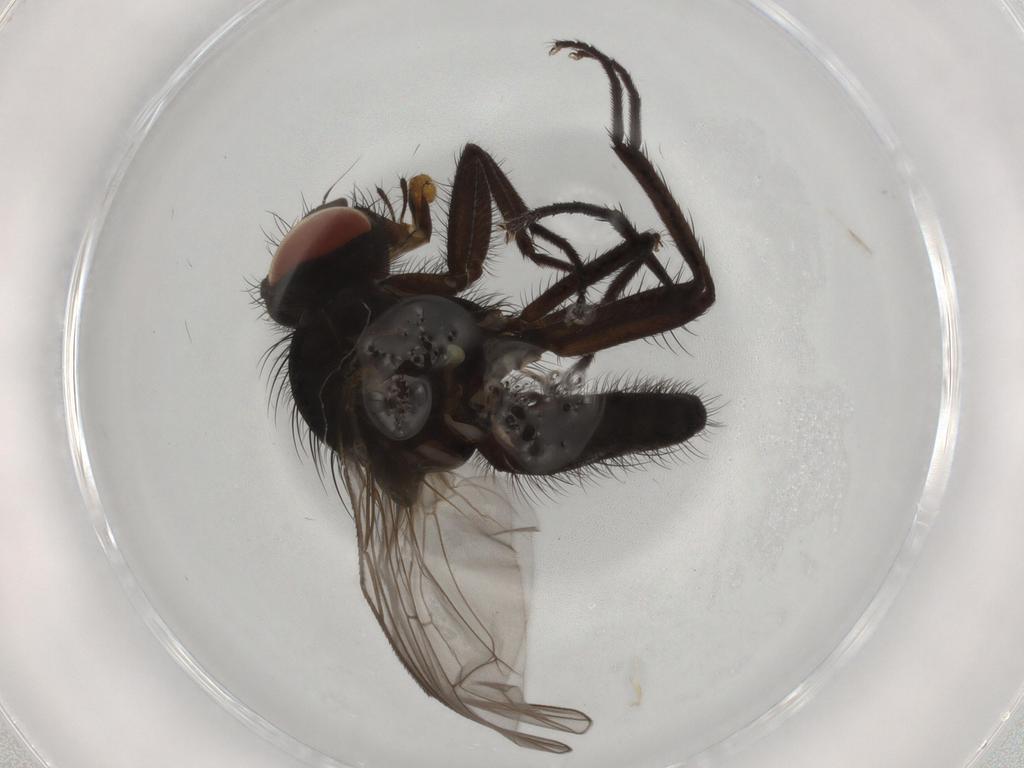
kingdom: Animalia
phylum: Arthropoda
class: Insecta
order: Diptera
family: Anthomyiidae
